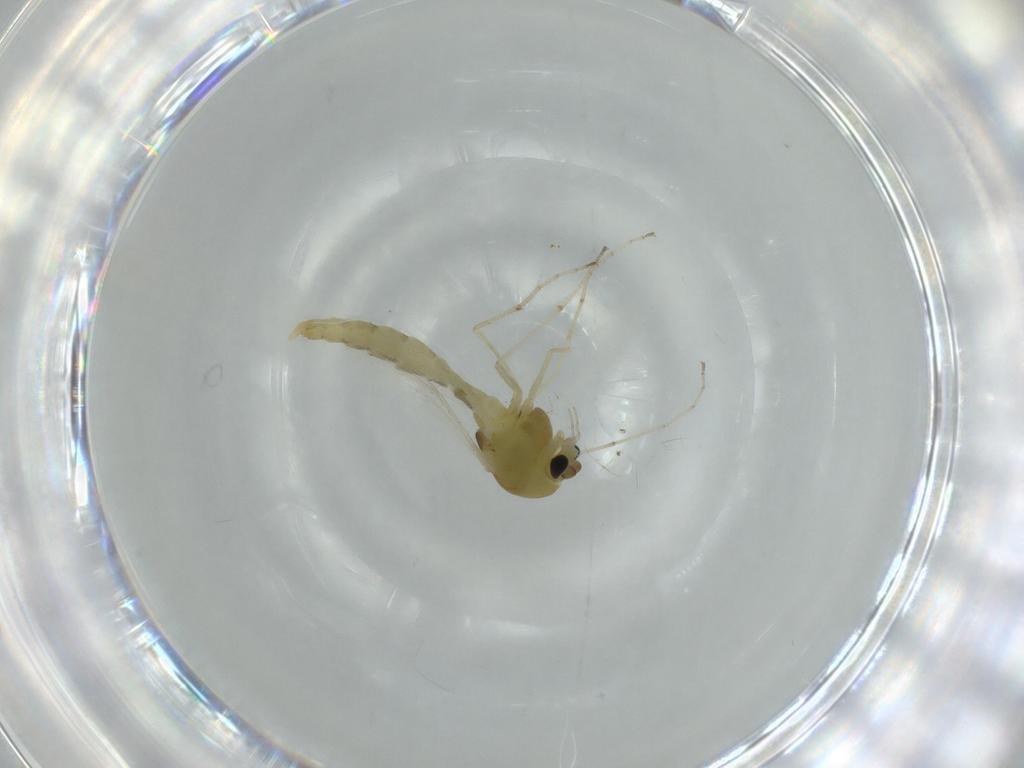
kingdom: Animalia
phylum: Arthropoda
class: Insecta
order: Diptera
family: Chironomidae
